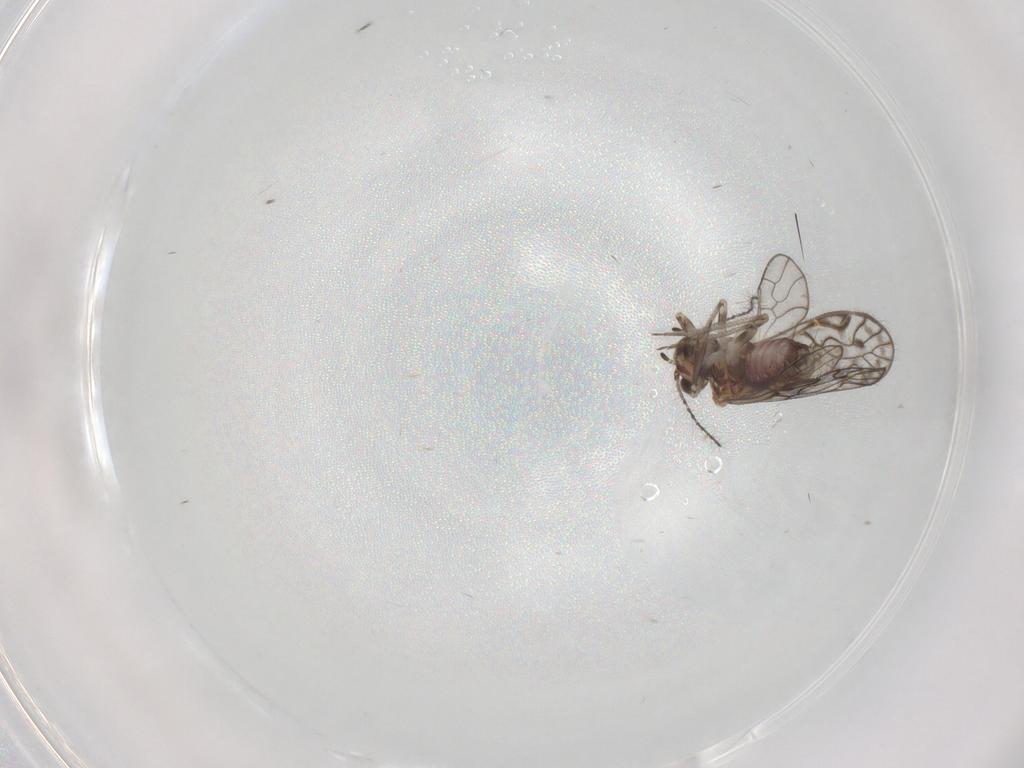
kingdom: Animalia
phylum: Arthropoda
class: Insecta
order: Psocodea
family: Psocidae
